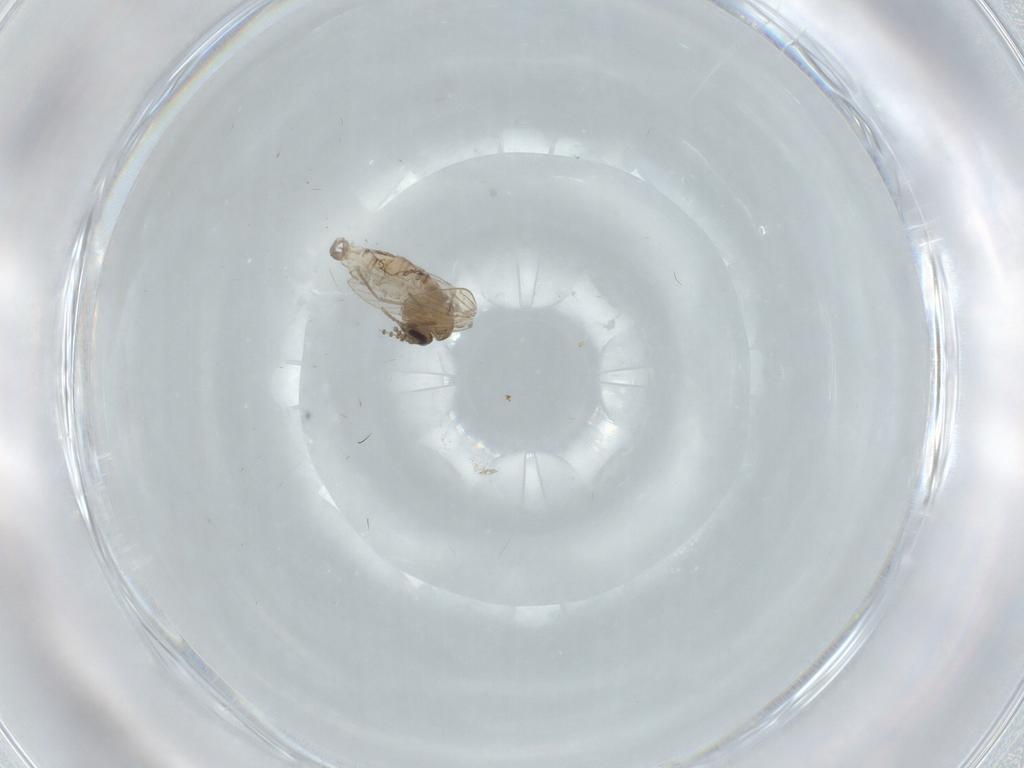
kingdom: Animalia
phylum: Arthropoda
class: Insecta
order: Diptera
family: Psychodidae
